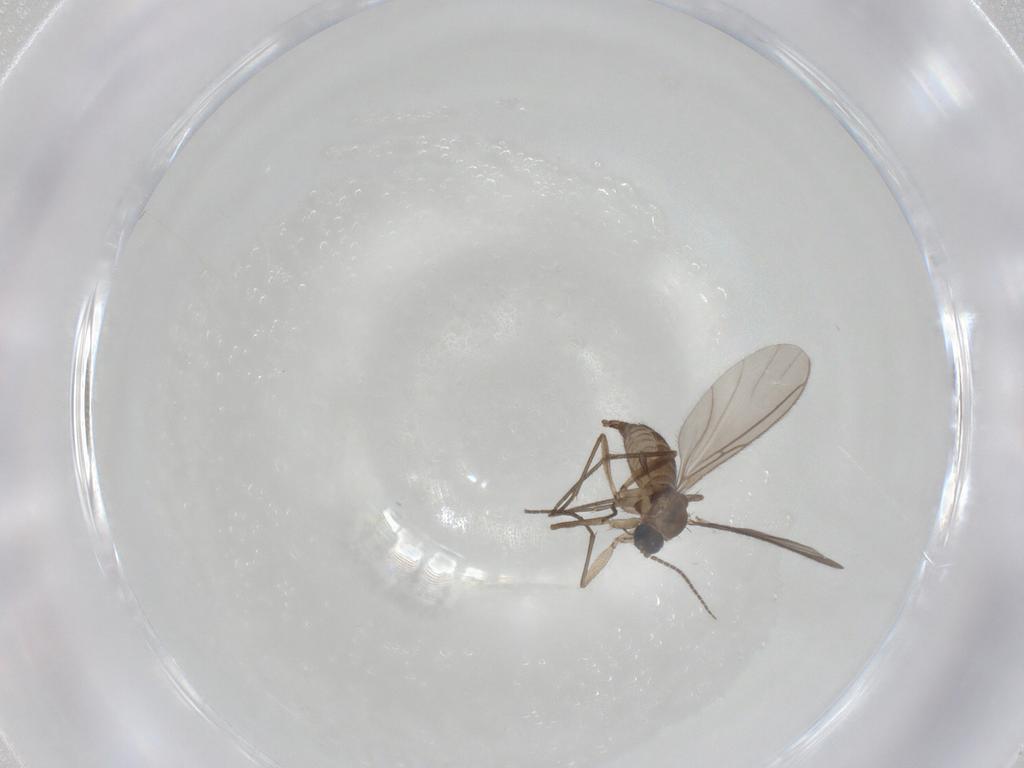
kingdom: Animalia
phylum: Arthropoda
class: Insecta
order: Diptera
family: Sciaridae
